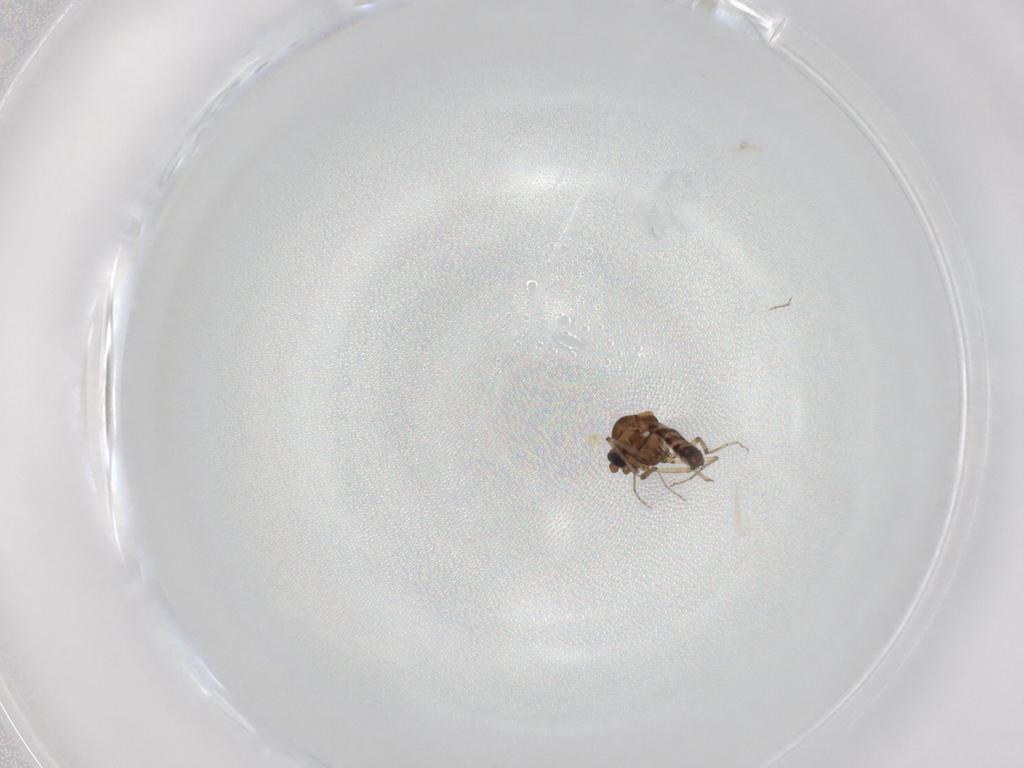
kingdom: Animalia
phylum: Arthropoda
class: Insecta
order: Diptera
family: Ceratopogonidae
